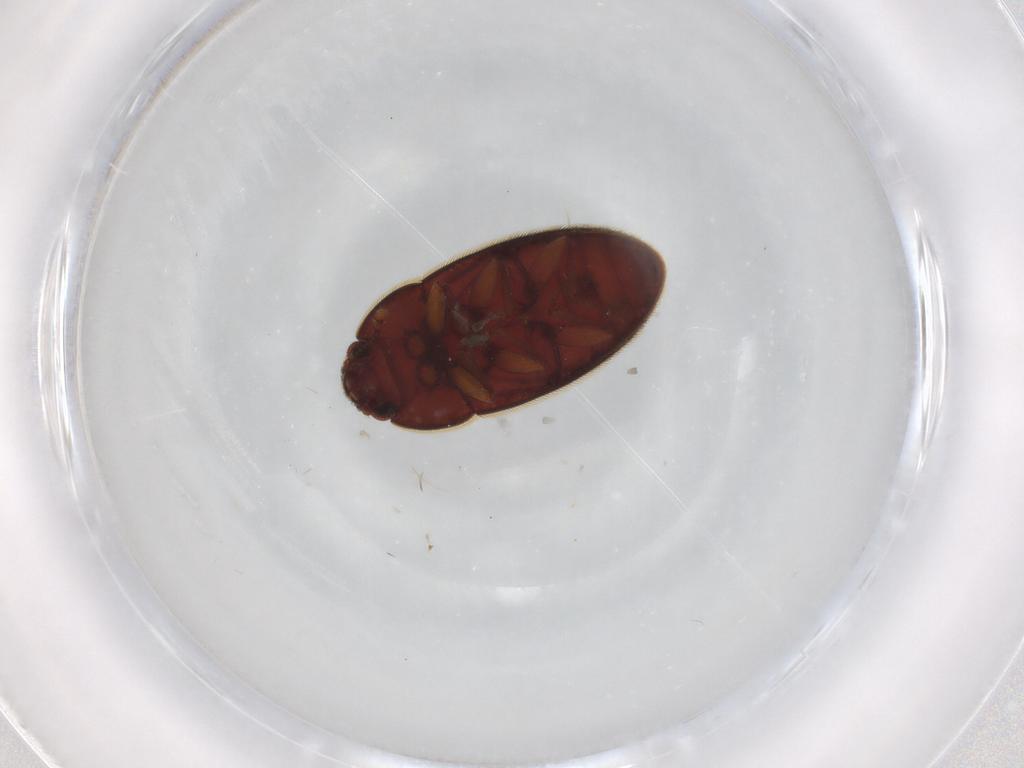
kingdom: Animalia
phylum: Arthropoda
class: Insecta
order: Coleoptera
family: Biphyllidae
